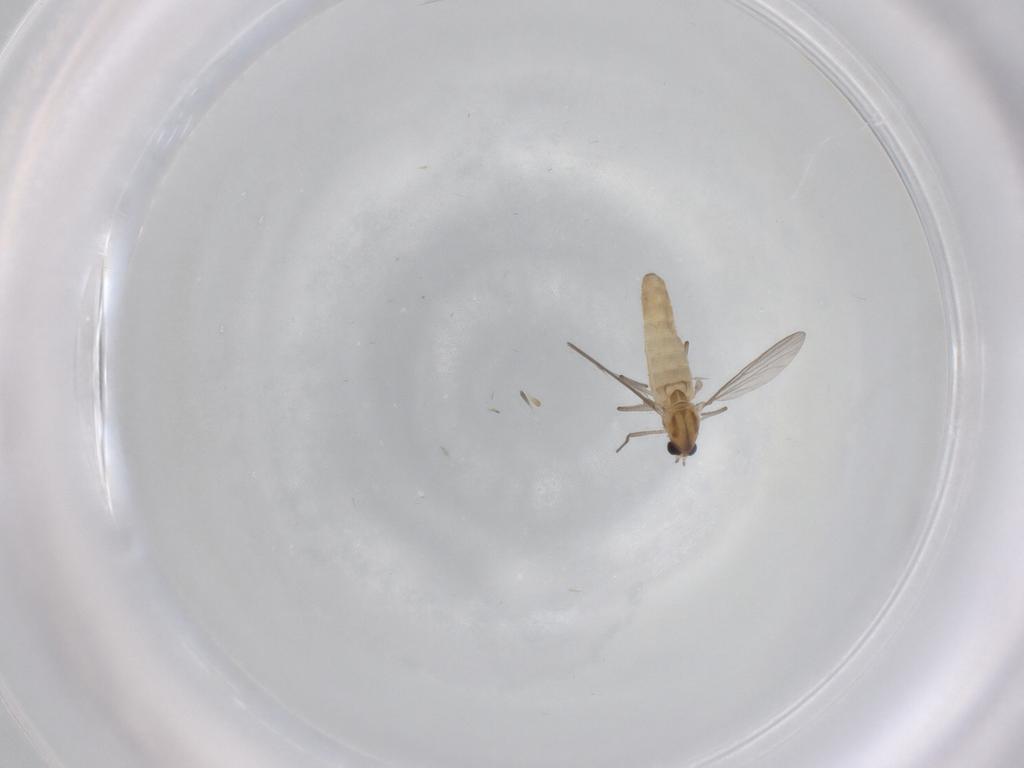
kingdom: Animalia
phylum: Arthropoda
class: Insecta
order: Diptera
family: Chironomidae
